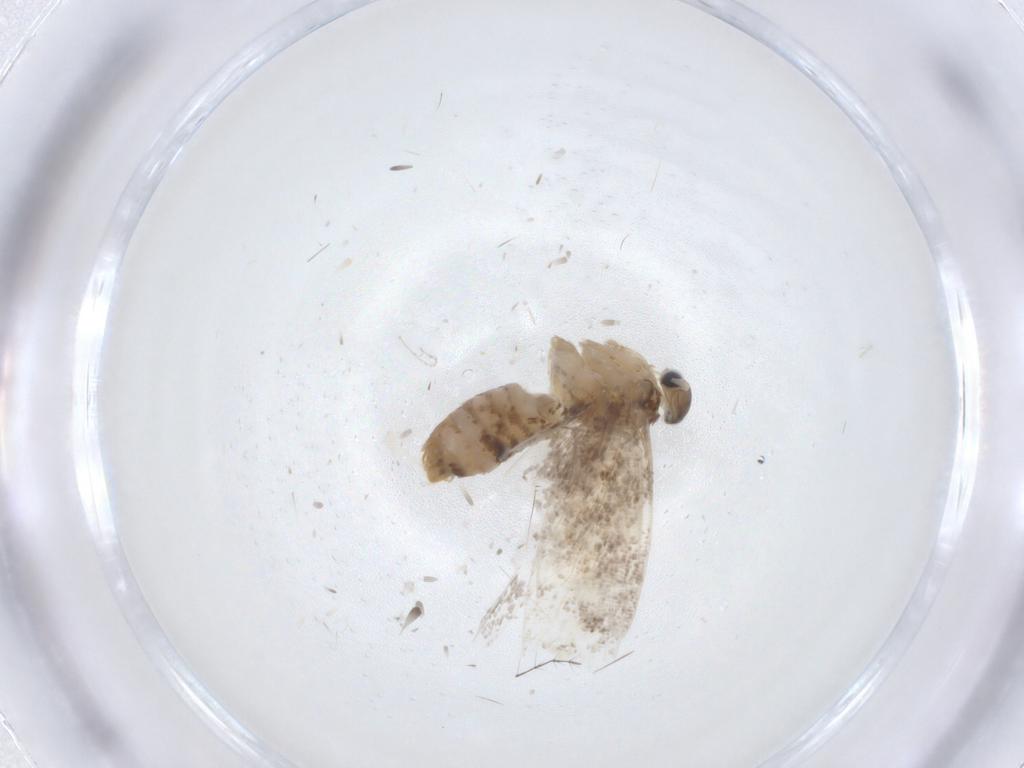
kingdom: Animalia
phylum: Arthropoda
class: Insecta
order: Lepidoptera
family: Tineidae
